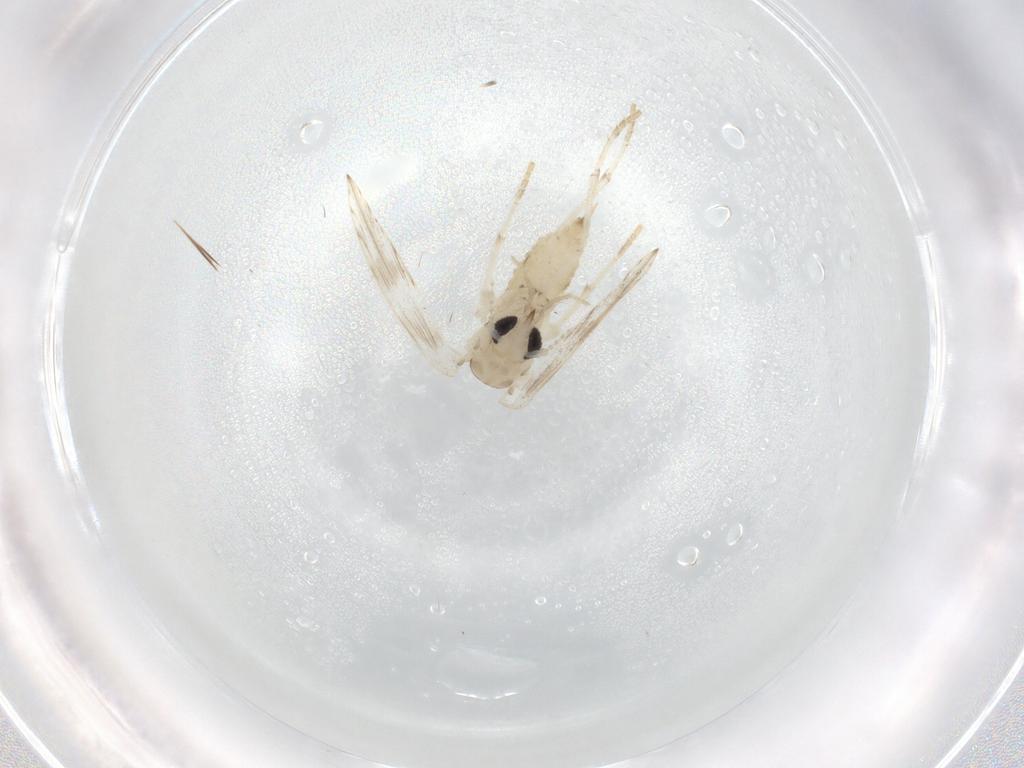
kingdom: Animalia
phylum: Arthropoda
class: Insecta
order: Diptera
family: Cecidomyiidae
